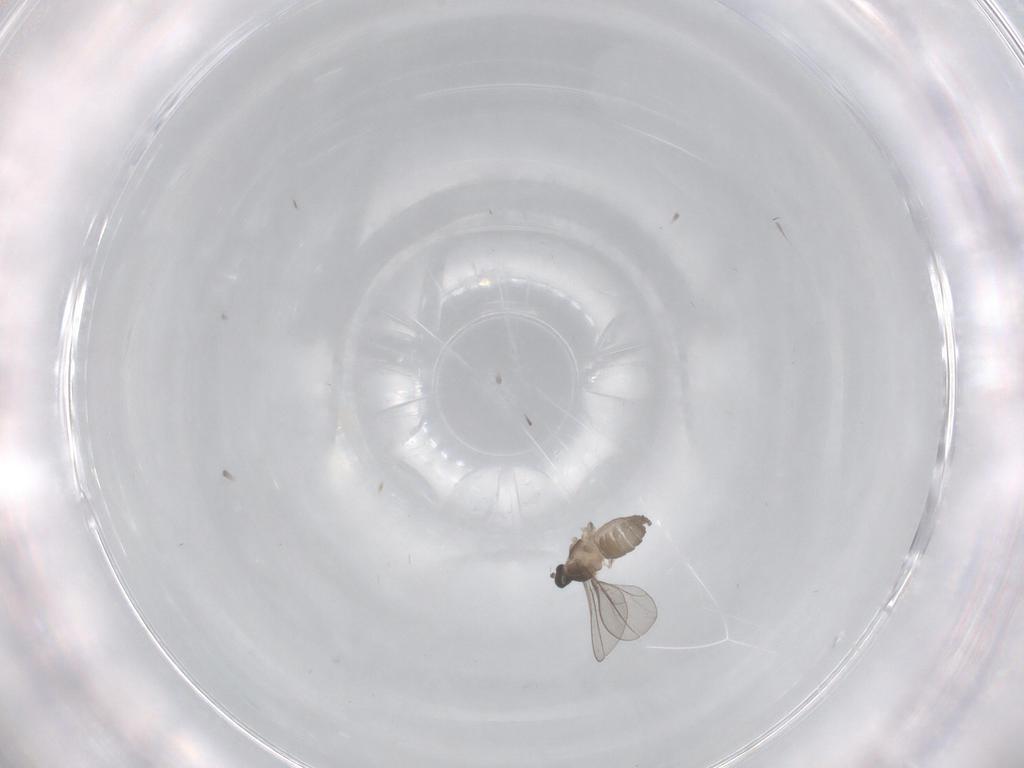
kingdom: Animalia
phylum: Arthropoda
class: Insecta
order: Diptera
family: Cecidomyiidae
